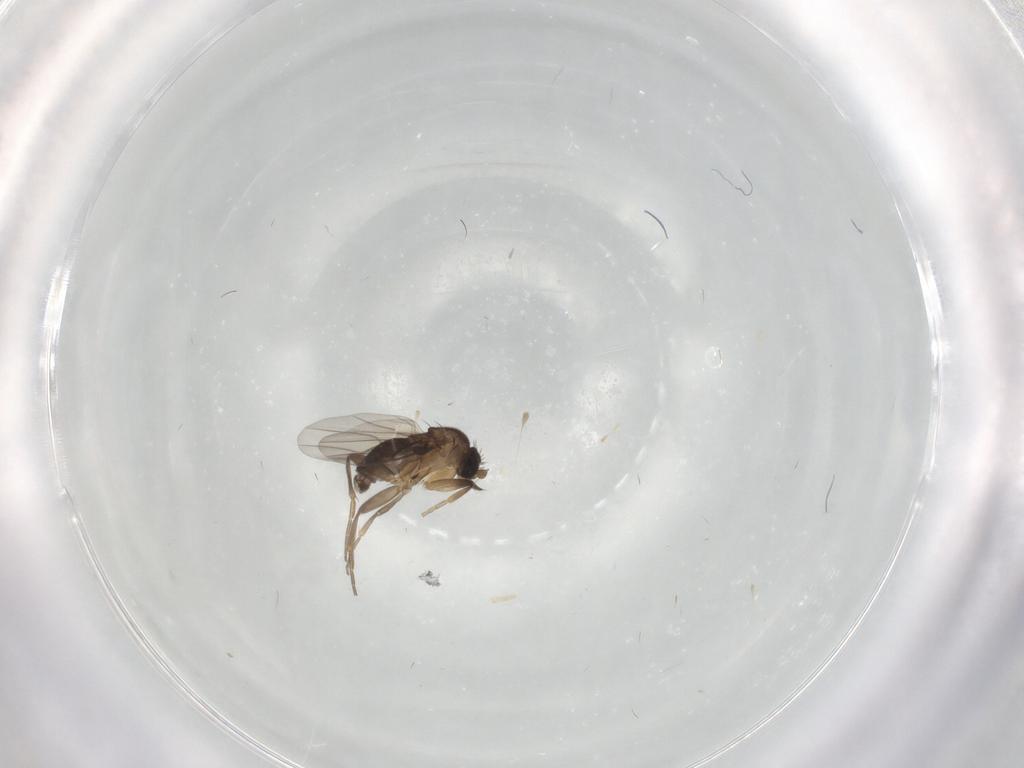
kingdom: Animalia
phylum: Arthropoda
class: Insecta
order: Diptera
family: Phoridae
